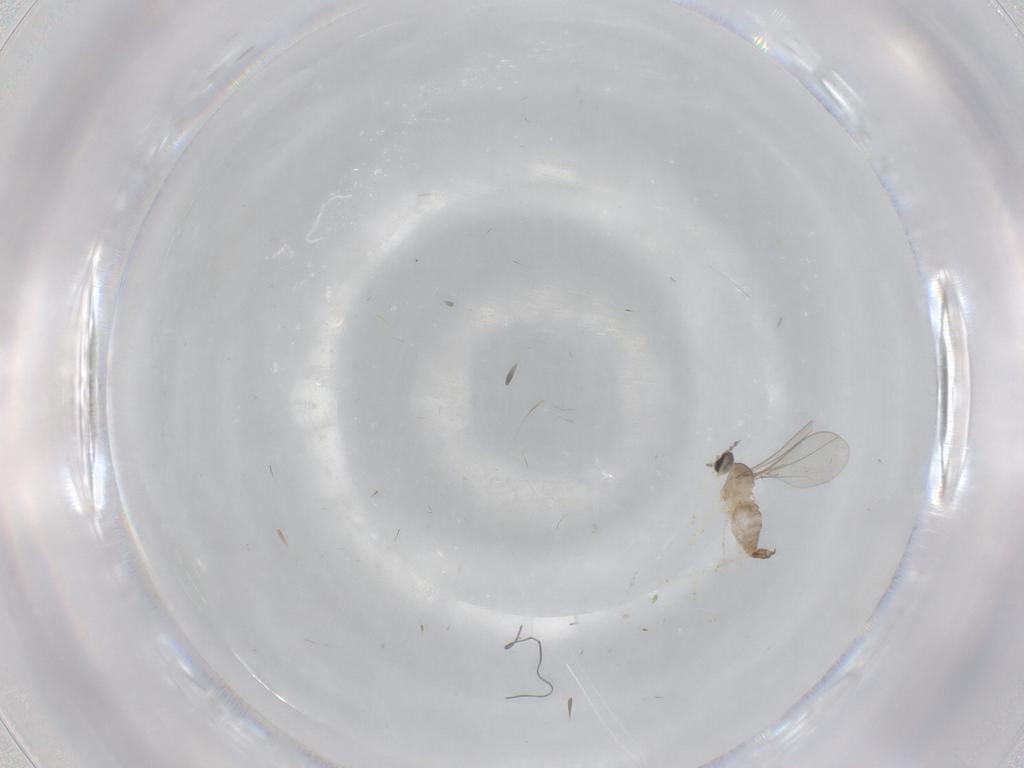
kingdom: Animalia
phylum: Arthropoda
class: Insecta
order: Diptera
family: Cecidomyiidae
